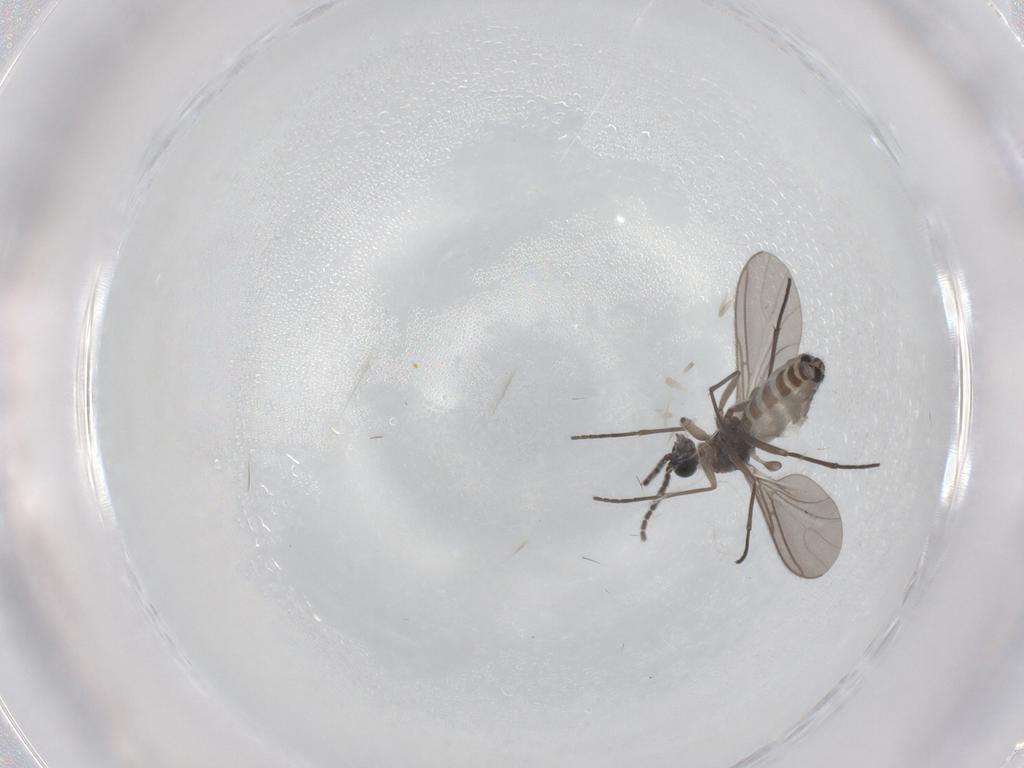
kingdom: Animalia
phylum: Arthropoda
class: Insecta
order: Diptera
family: Sciaridae
